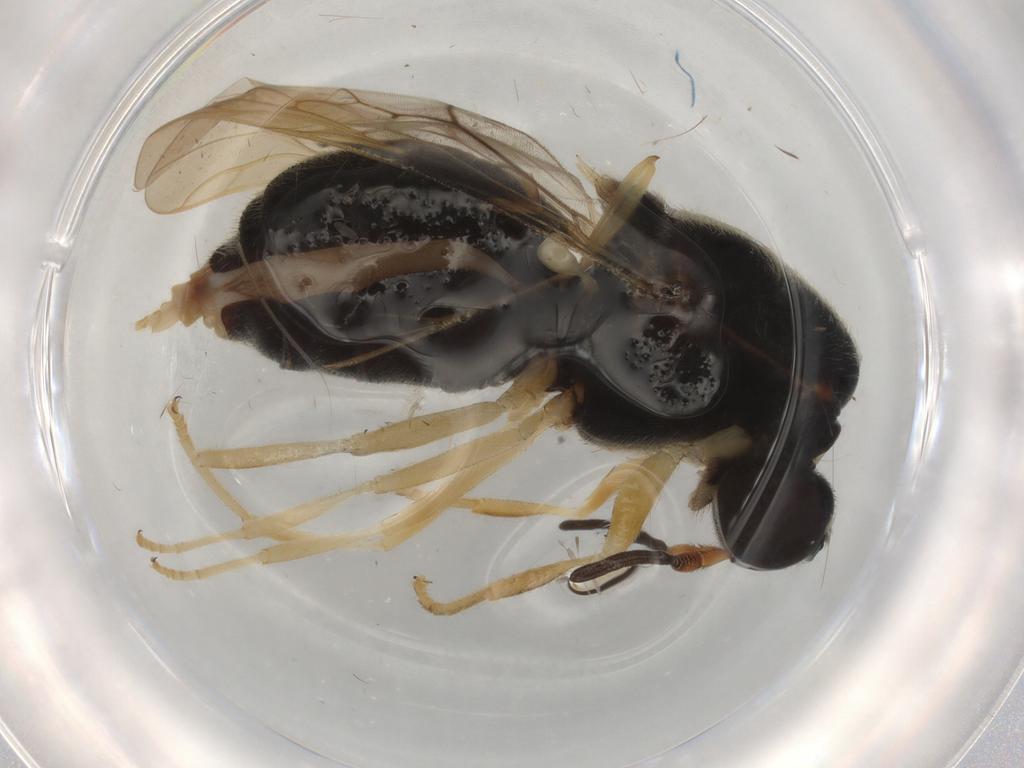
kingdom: Animalia
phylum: Arthropoda
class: Insecta
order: Diptera
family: Stratiomyidae
